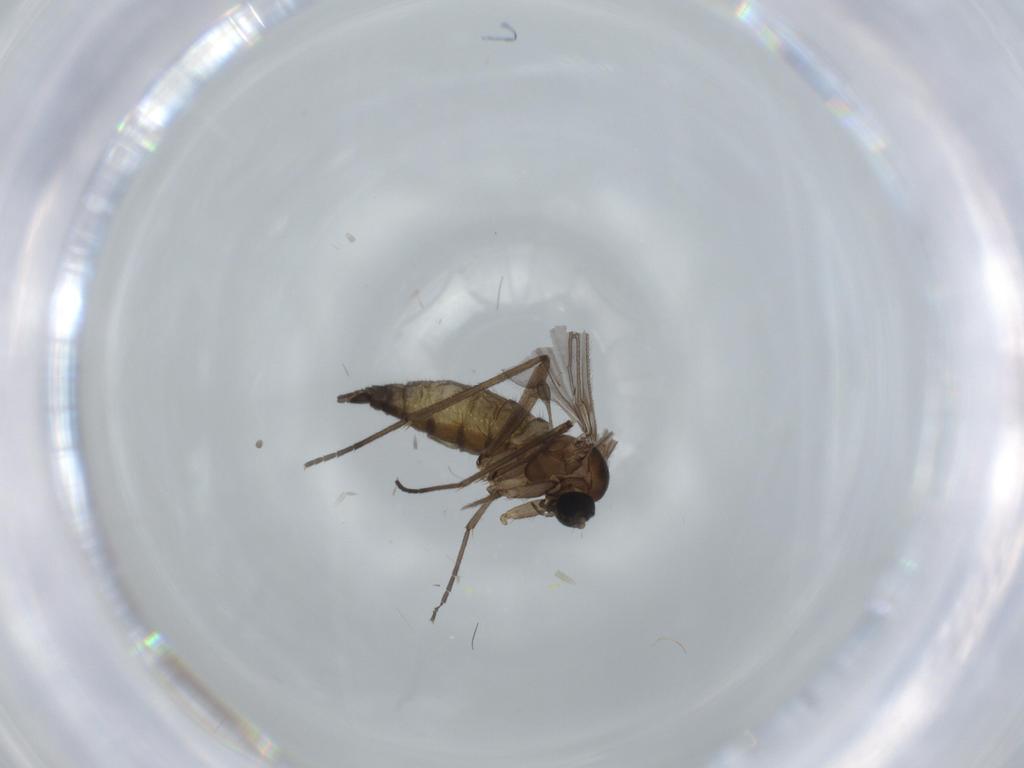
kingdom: Animalia
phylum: Arthropoda
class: Insecta
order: Diptera
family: Sciaridae
